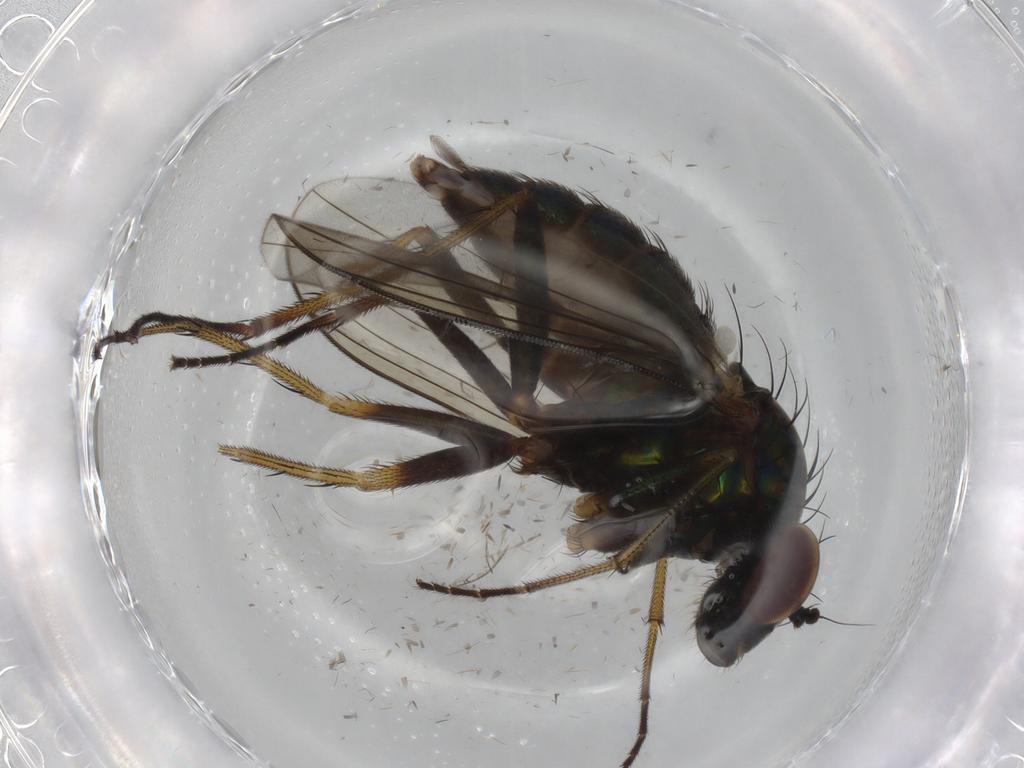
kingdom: Animalia
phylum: Arthropoda
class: Insecta
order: Diptera
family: Dolichopodidae
